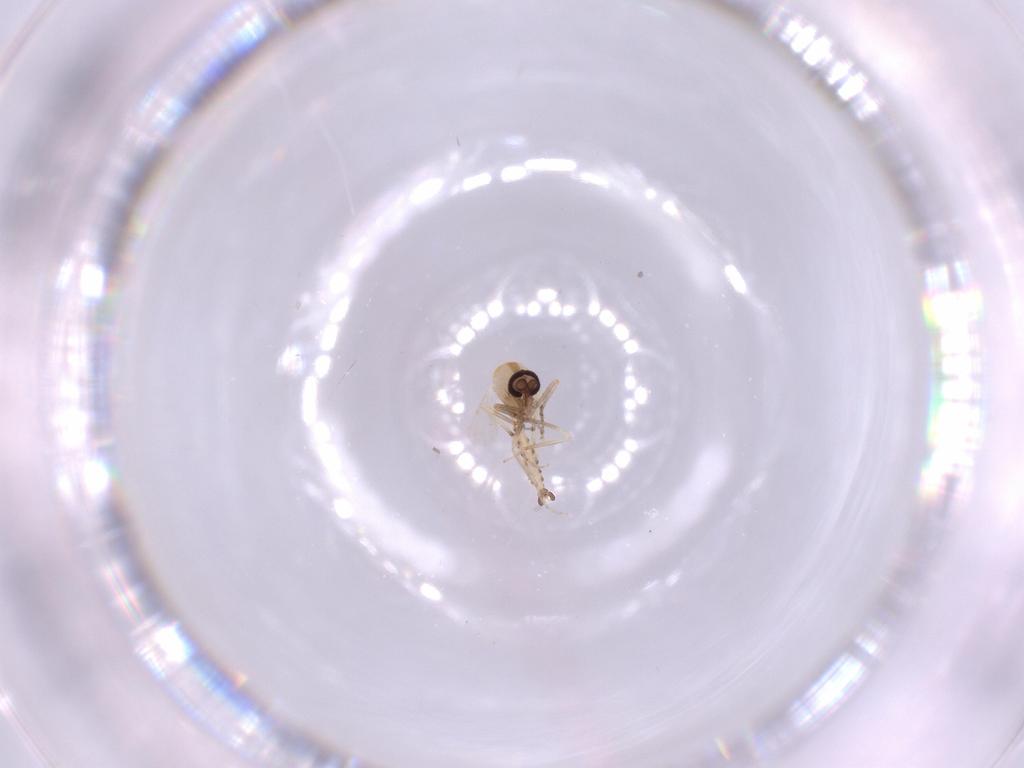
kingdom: Animalia
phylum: Arthropoda
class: Insecta
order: Diptera
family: Ceratopogonidae
